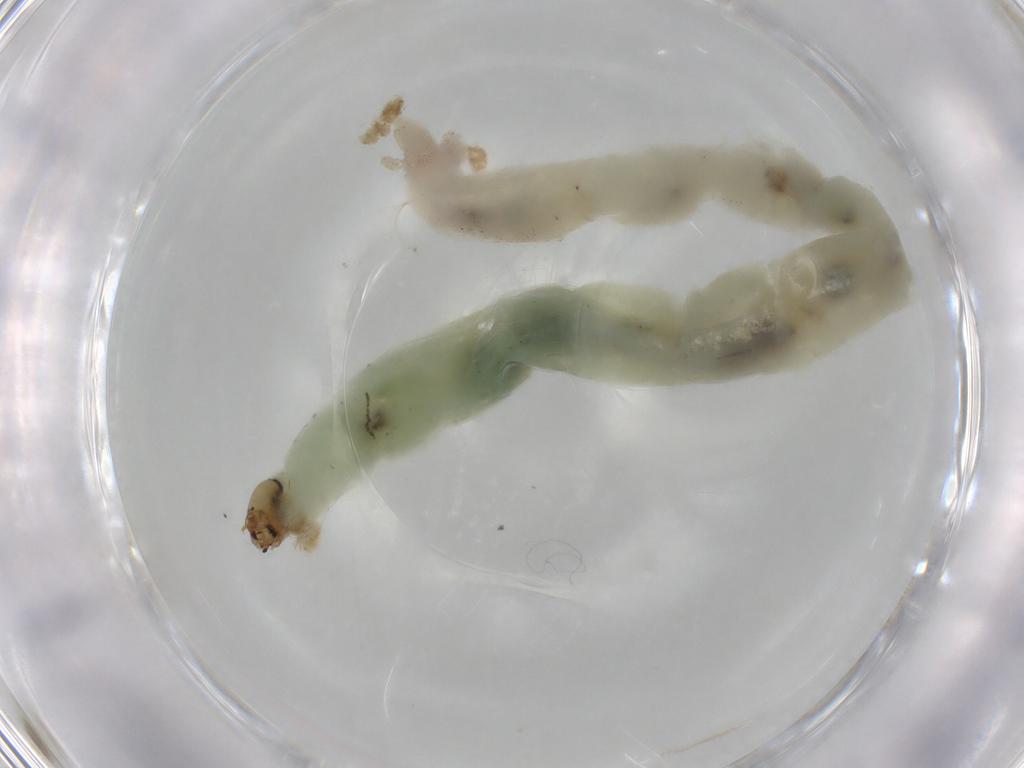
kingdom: Animalia
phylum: Arthropoda
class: Insecta
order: Diptera
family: Chironomidae
